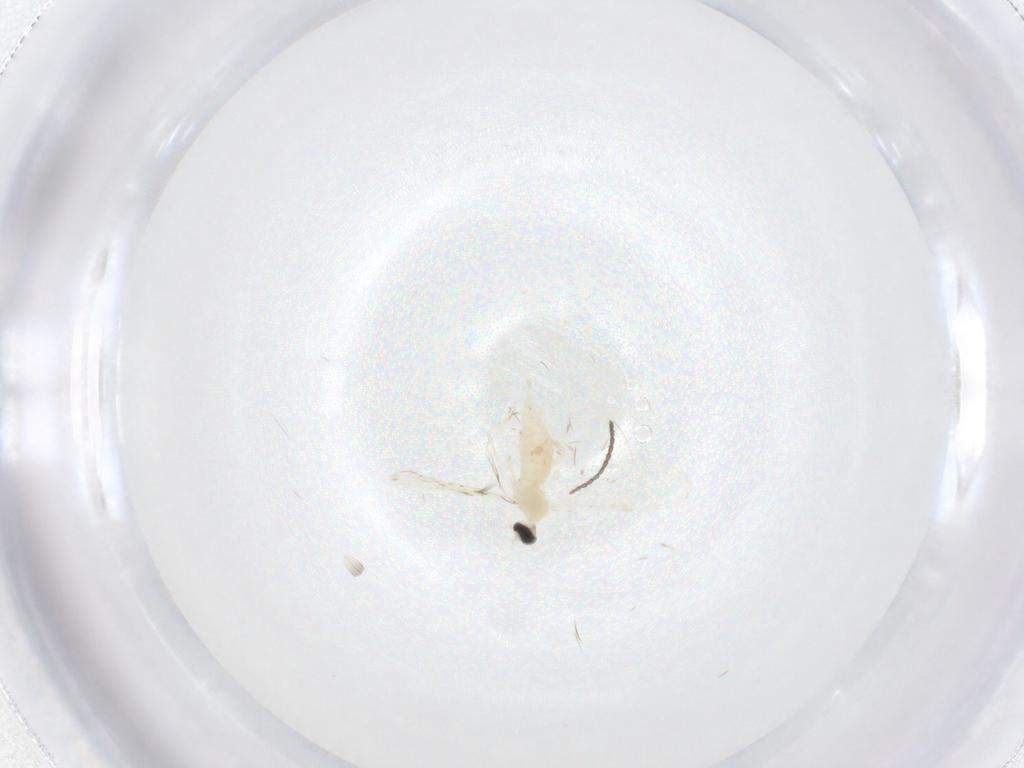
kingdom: Animalia
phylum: Arthropoda
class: Insecta
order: Diptera
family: Cecidomyiidae
